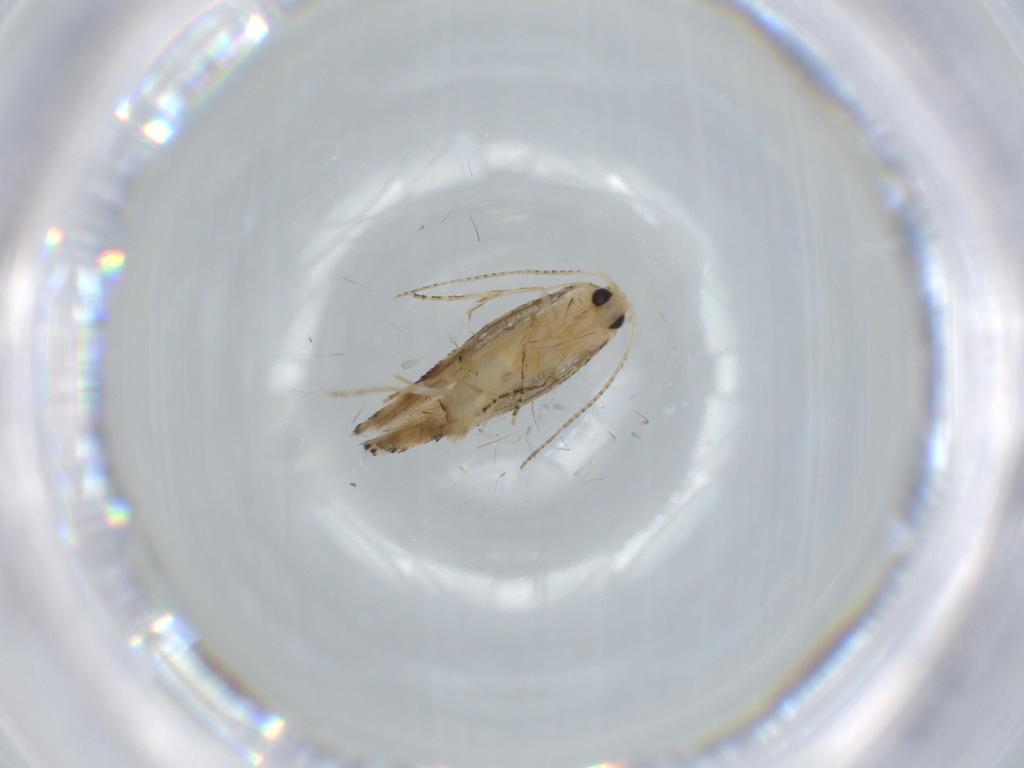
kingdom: Animalia
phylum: Arthropoda
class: Insecta
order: Lepidoptera
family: Bucculatricidae
